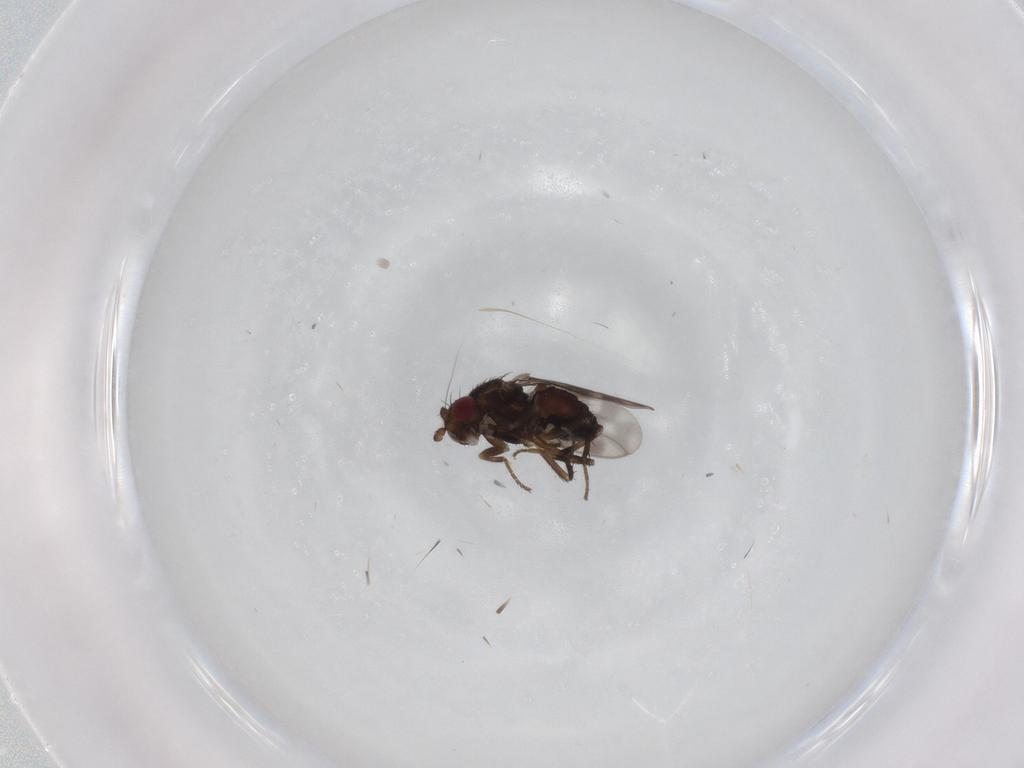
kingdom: Animalia
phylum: Arthropoda
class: Insecta
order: Diptera
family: Sphaeroceridae
